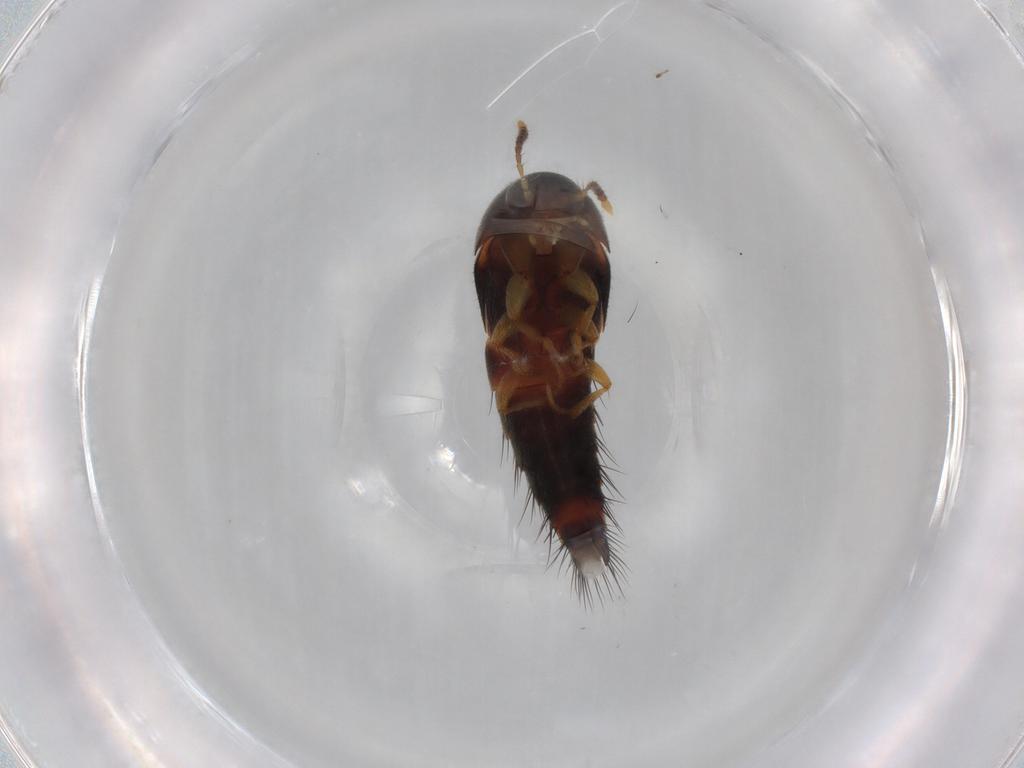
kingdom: Animalia
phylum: Arthropoda
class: Insecta
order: Coleoptera
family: Staphylinidae
